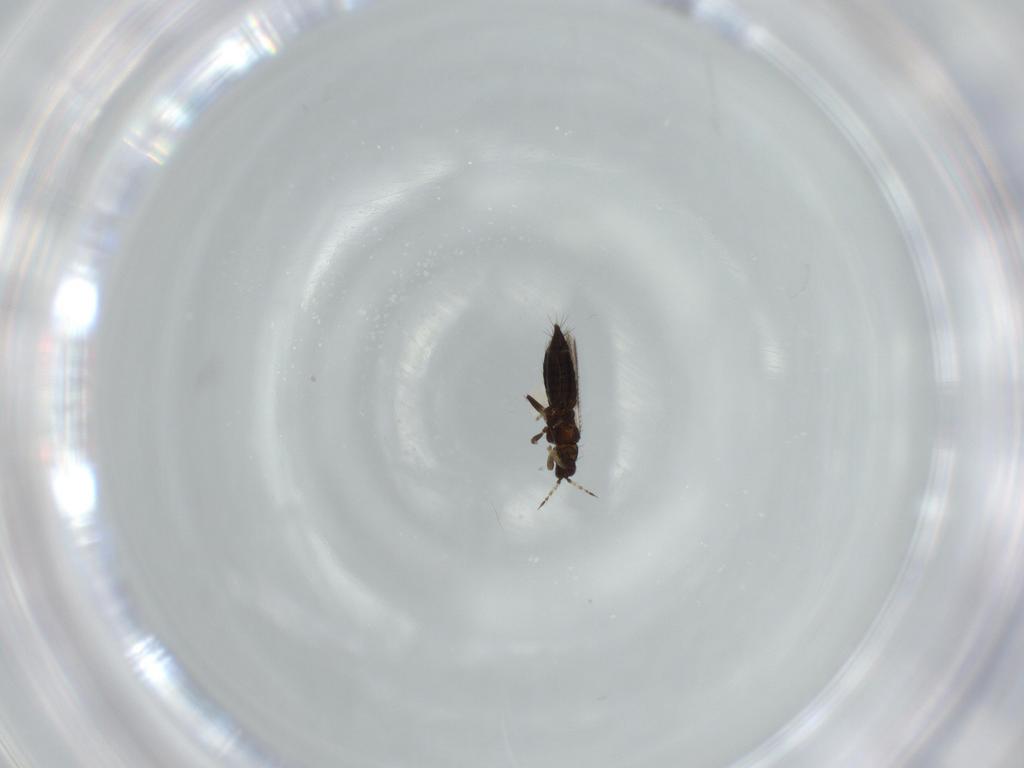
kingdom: Animalia
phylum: Arthropoda
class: Insecta
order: Thysanoptera
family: Thripidae
